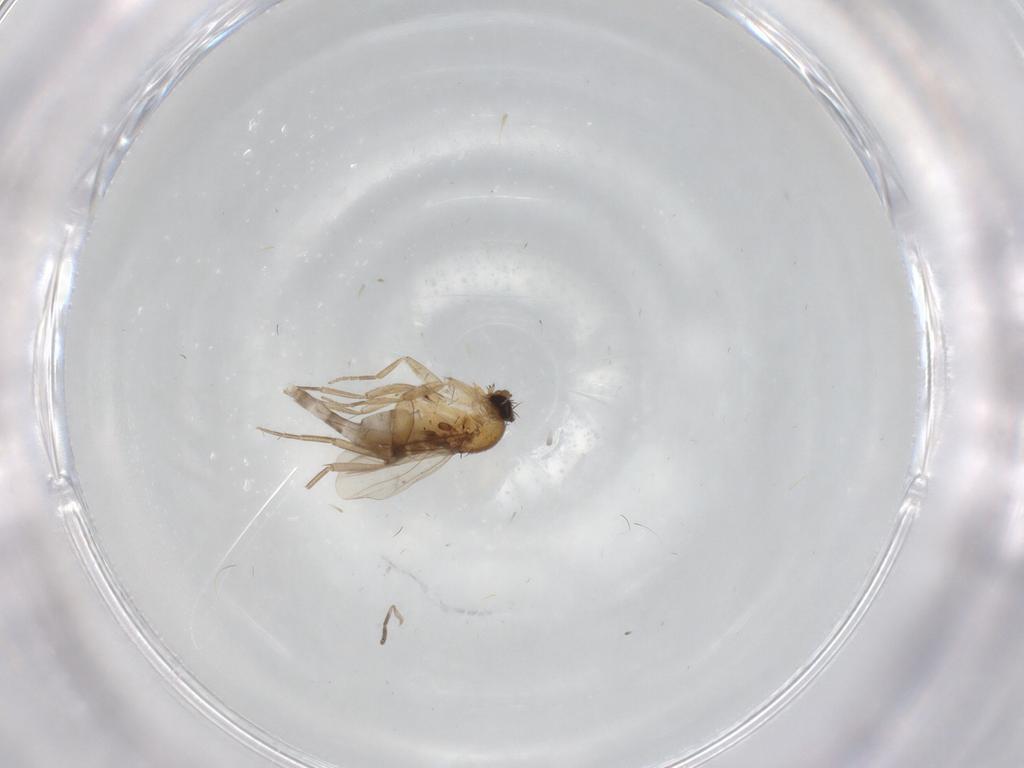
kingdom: Animalia
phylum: Arthropoda
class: Insecta
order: Diptera
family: Phoridae
